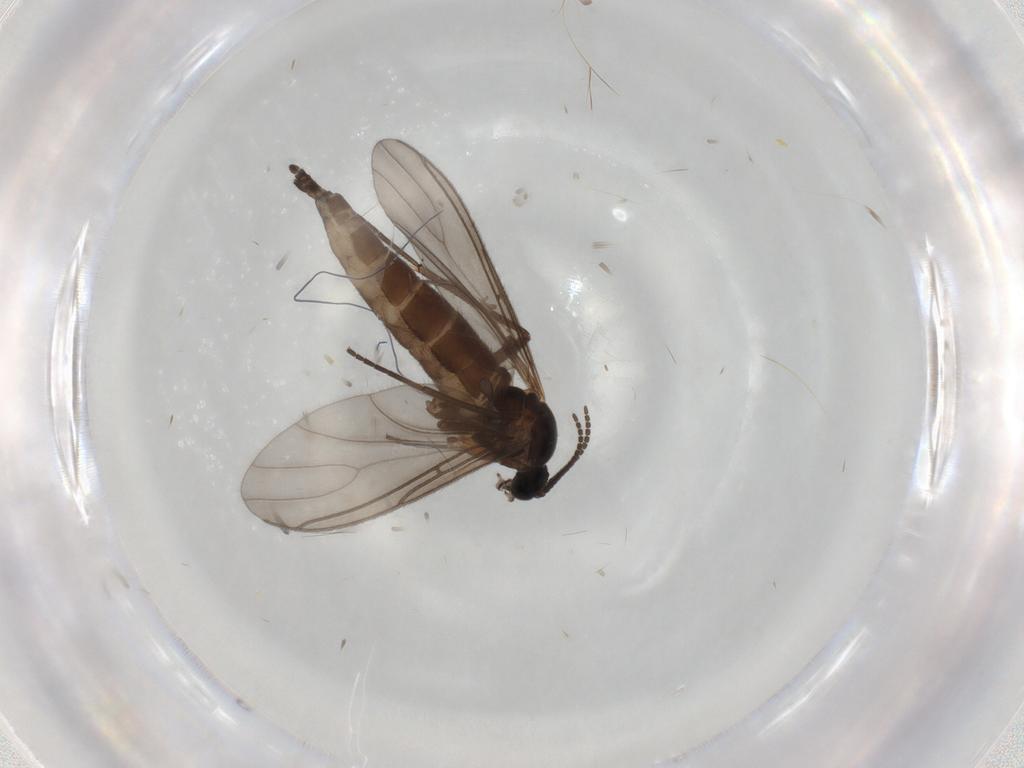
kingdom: Animalia
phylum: Arthropoda
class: Insecta
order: Diptera
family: Sciaridae
